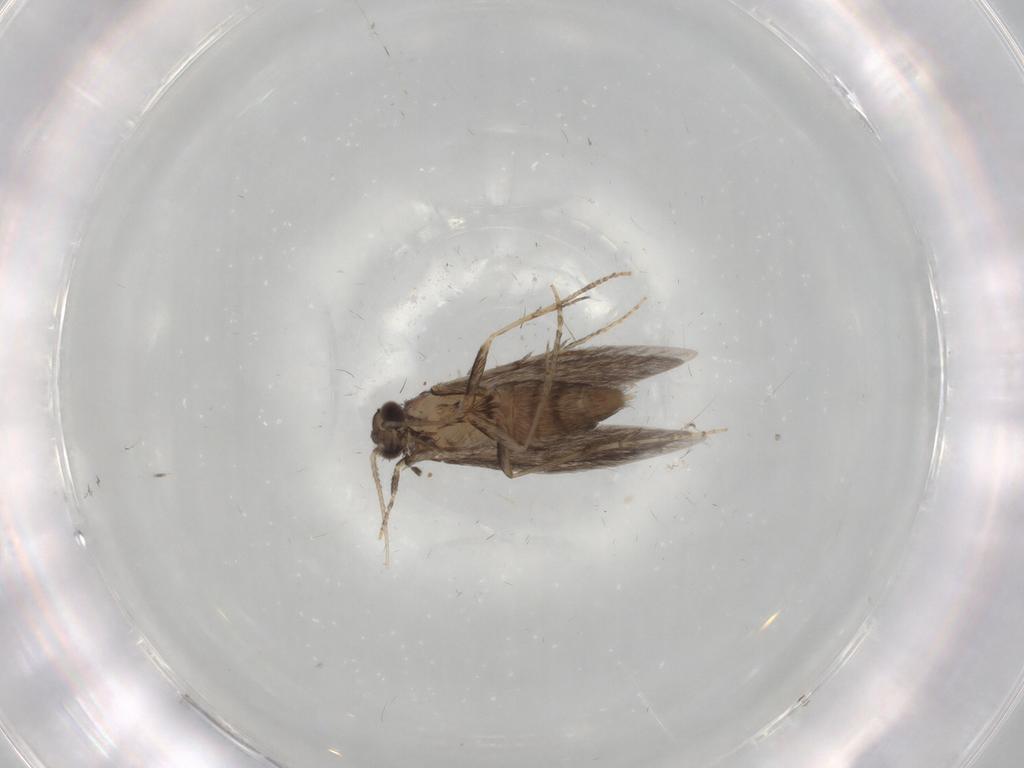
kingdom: Animalia
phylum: Arthropoda
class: Insecta
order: Trichoptera
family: Hydroptilidae
